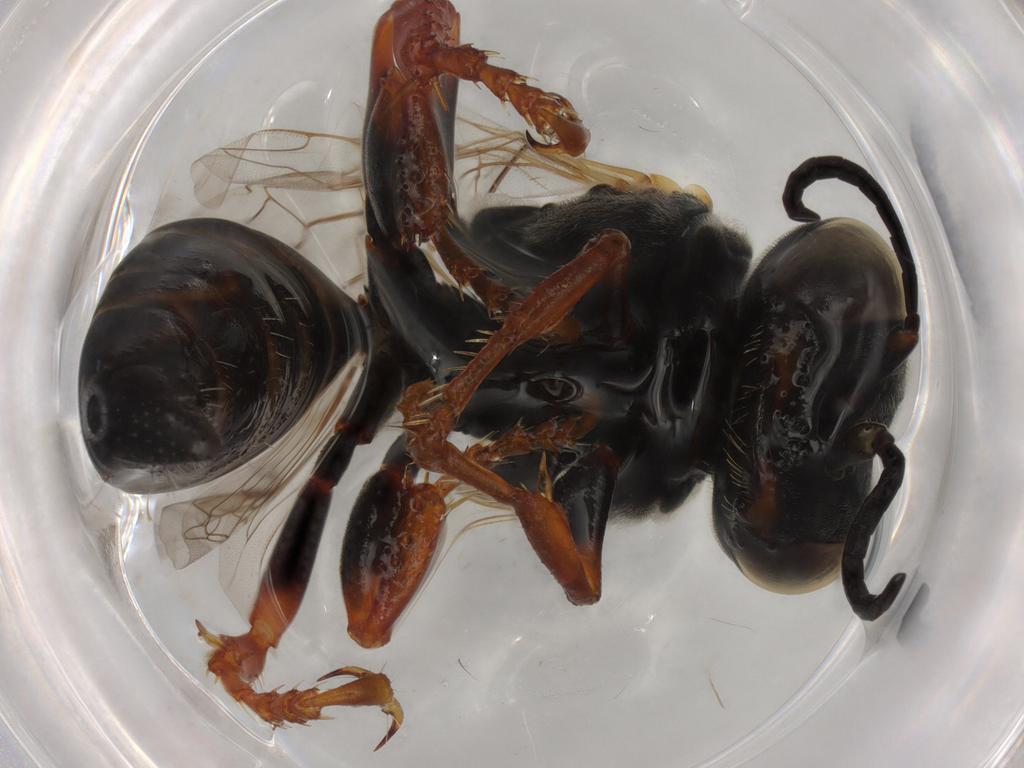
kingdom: Animalia
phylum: Arthropoda
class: Insecta
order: Hymenoptera
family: Crabronidae
